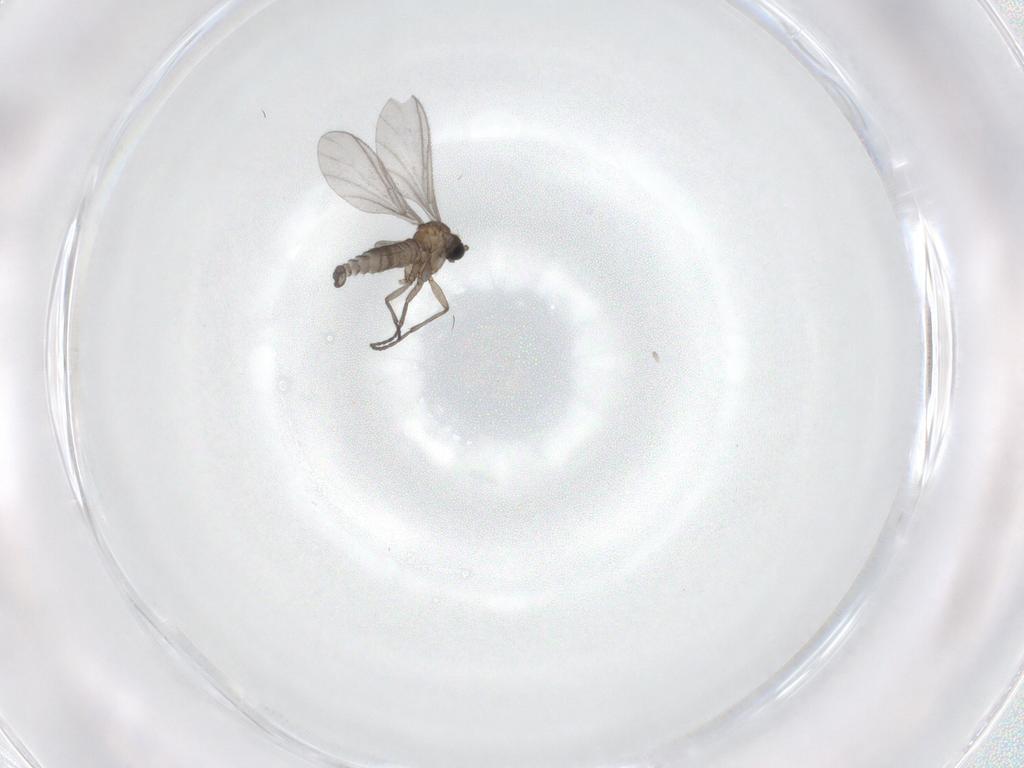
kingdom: Animalia
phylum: Arthropoda
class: Insecta
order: Diptera
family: Sciaridae
